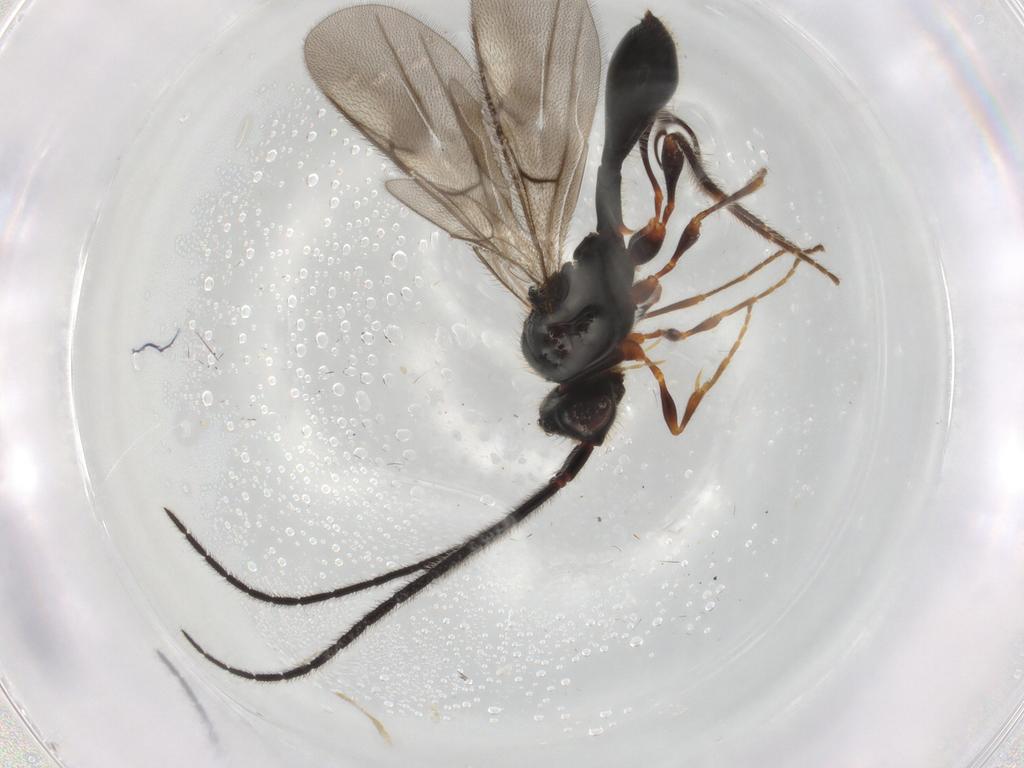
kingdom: Animalia
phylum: Arthropoda
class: Insecta
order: Hymenoptera
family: Diapriidae
